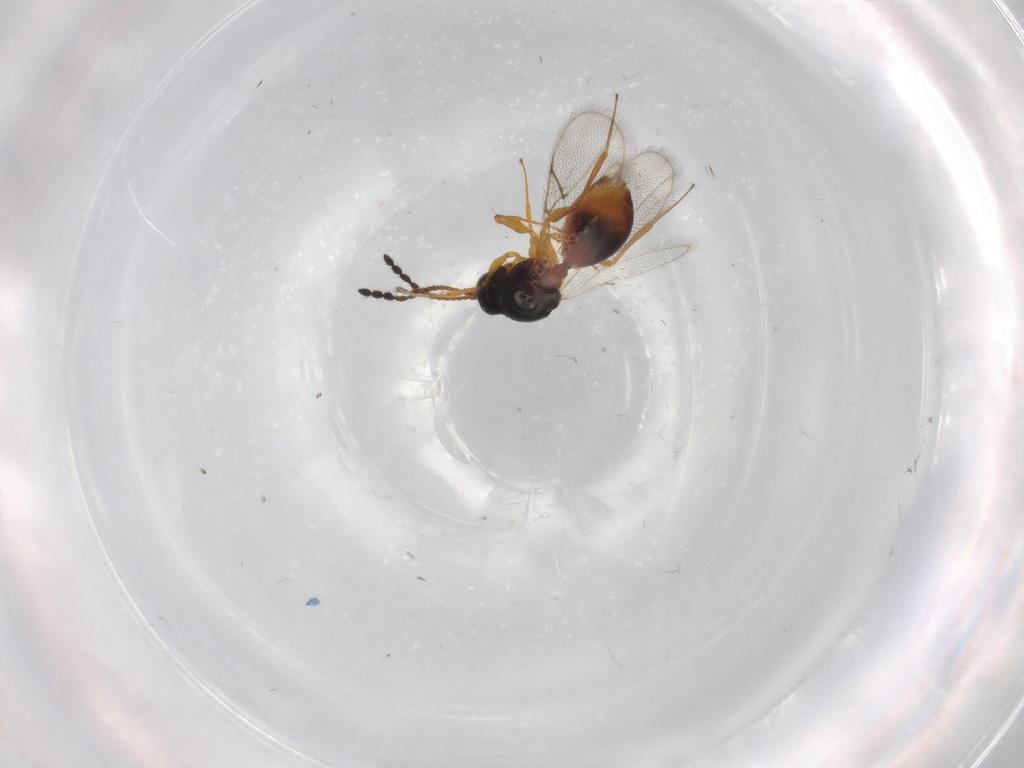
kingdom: Animalia
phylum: Arthropoda
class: Insecta
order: Hymenoptera
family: Figitidae
